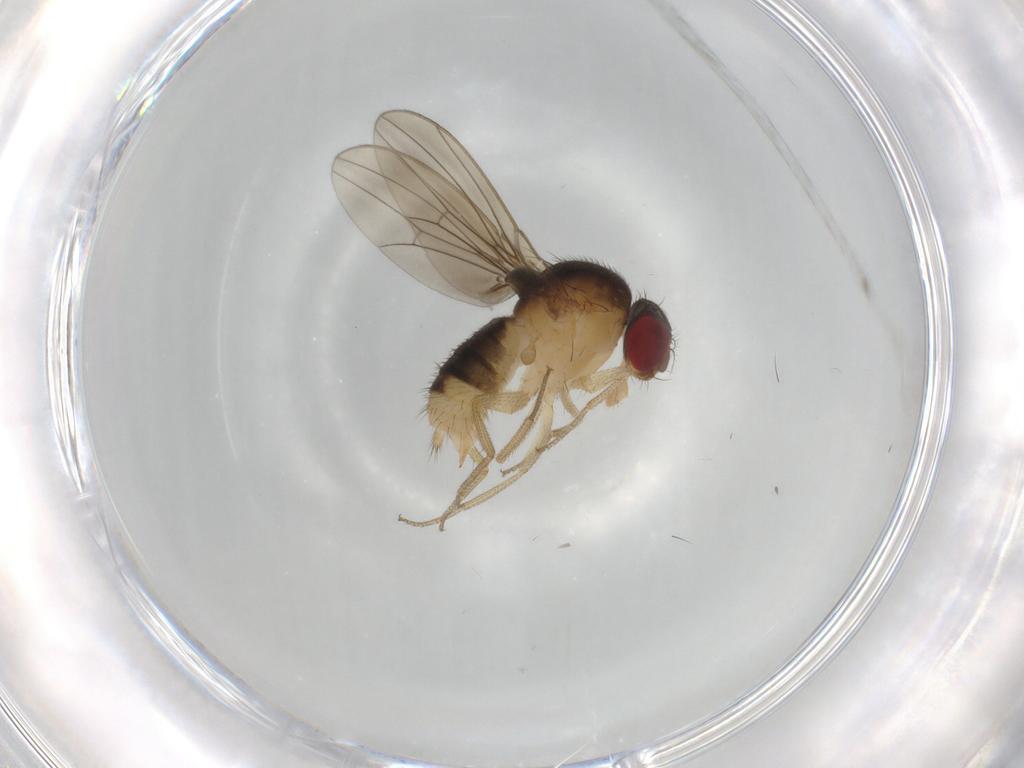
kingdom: Animalia
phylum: Arthropoda
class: Insecta
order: Diptera
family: Drosophilidae
